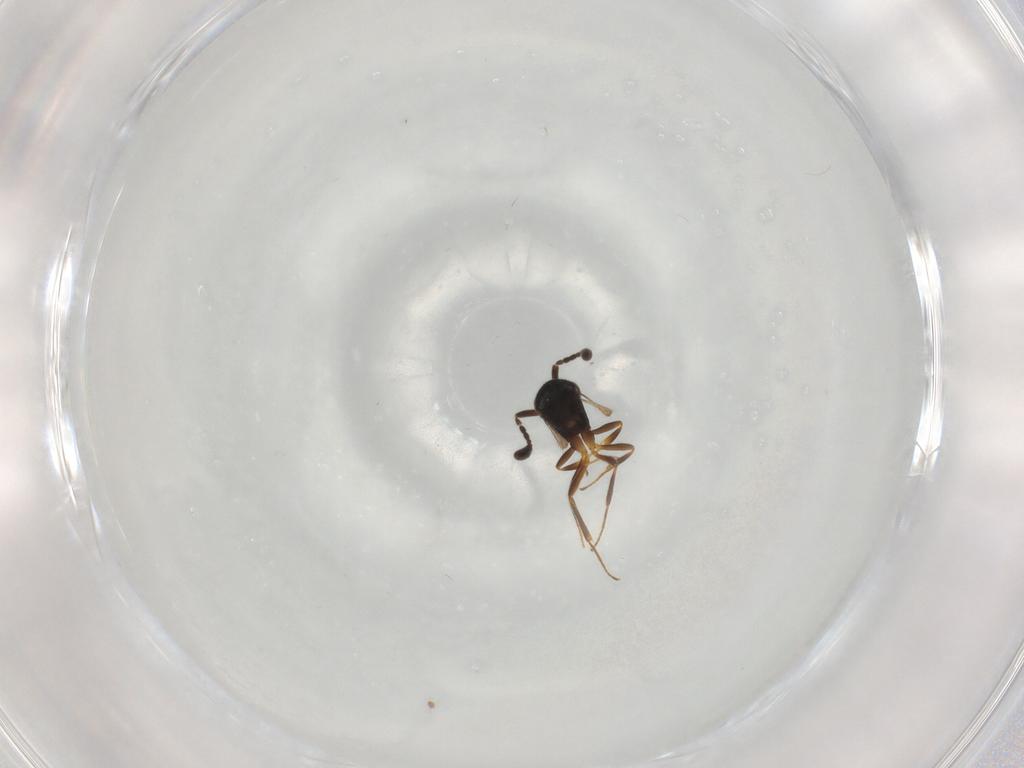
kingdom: Animalia
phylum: Arthropoda
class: Insecta
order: Hymenoptera
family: Scelionidae
